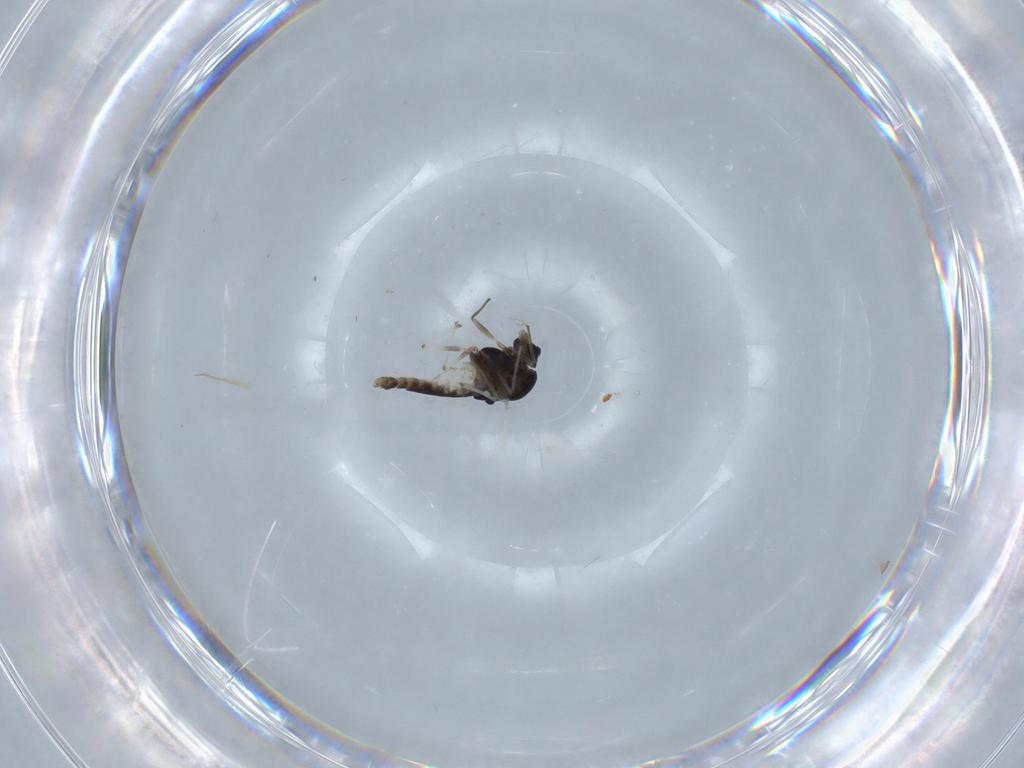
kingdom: Animalia
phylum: Arthropoda
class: Insecta
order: Diptera
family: Chironomidae
